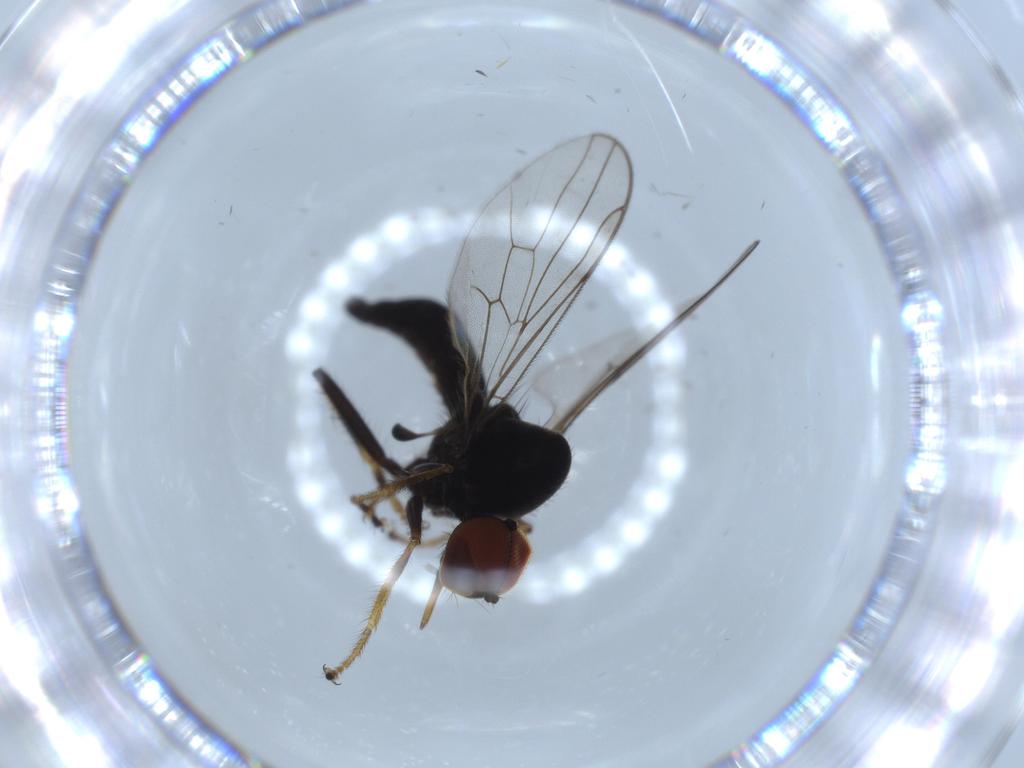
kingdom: Animalia
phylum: Arthropoda
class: Insecta
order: Diptera
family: Hybotidae
